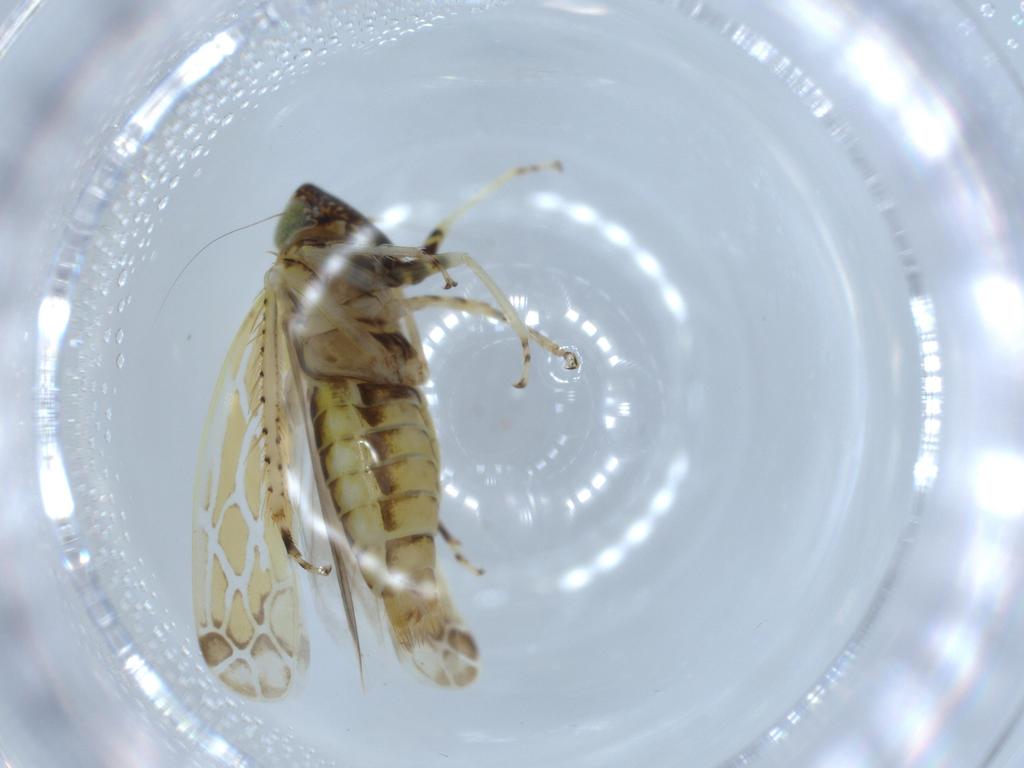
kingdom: Animalia
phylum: Arthropoda
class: Insecta
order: Hemiptera
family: Cicadellidae
